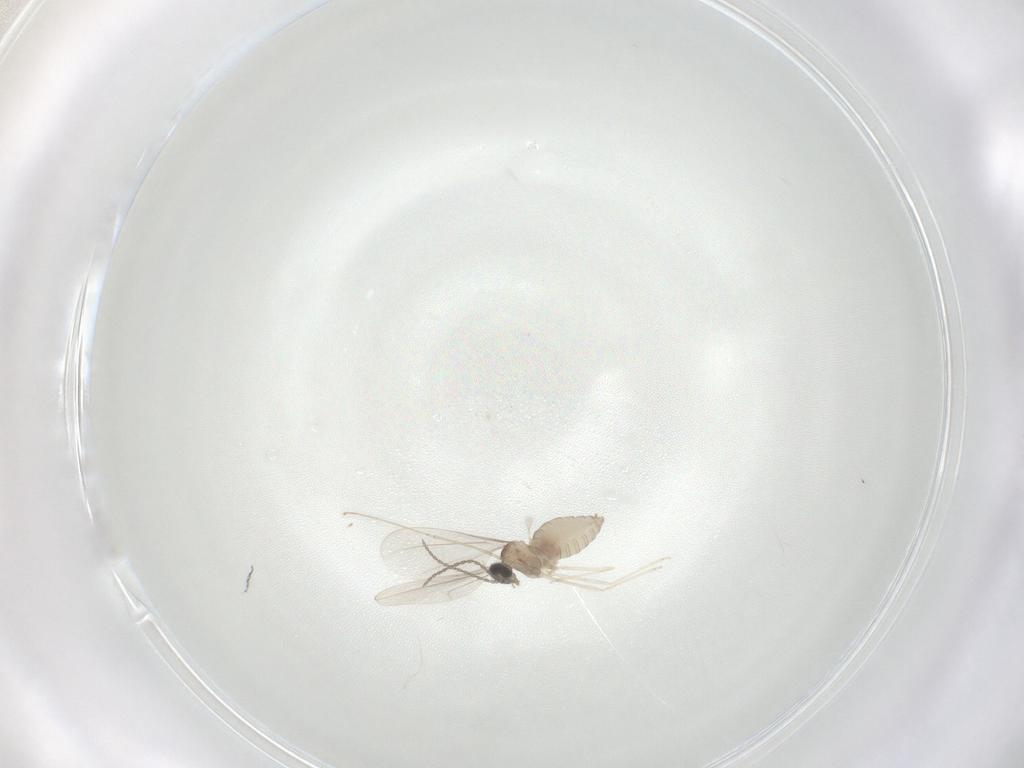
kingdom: Animalia
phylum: Arthropoda
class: Insecta
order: Diptera
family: Cecidomyiidae
